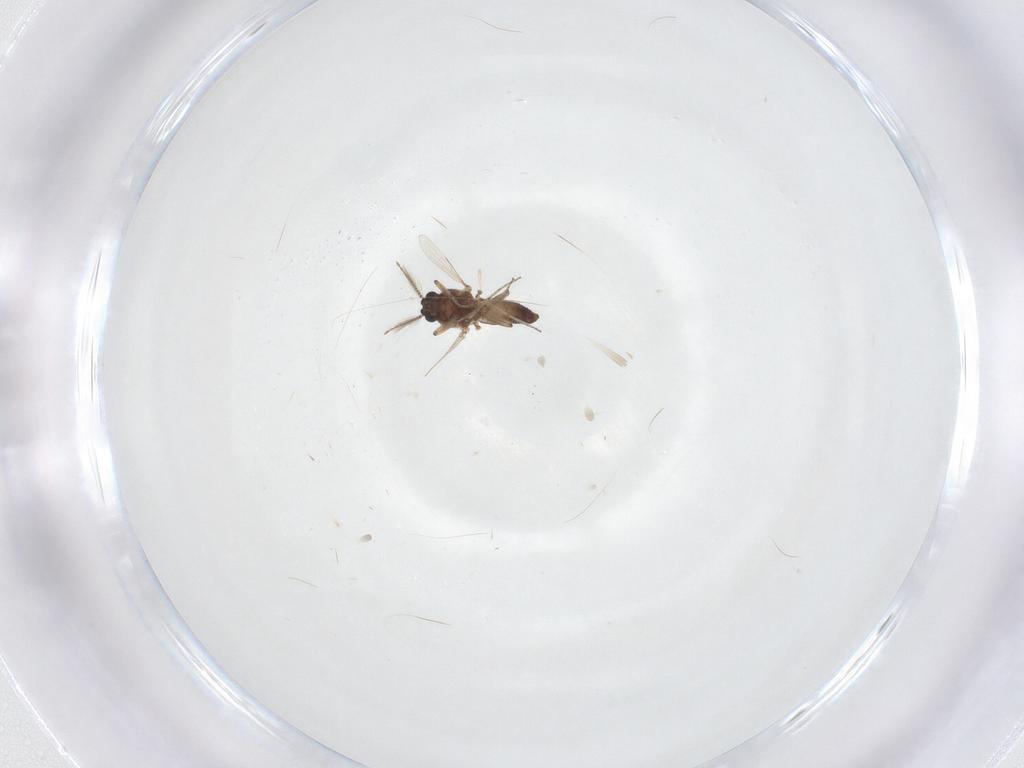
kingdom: Animalia
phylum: Arthropoda
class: Insecta
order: Diptera
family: Ceratopogonidae
